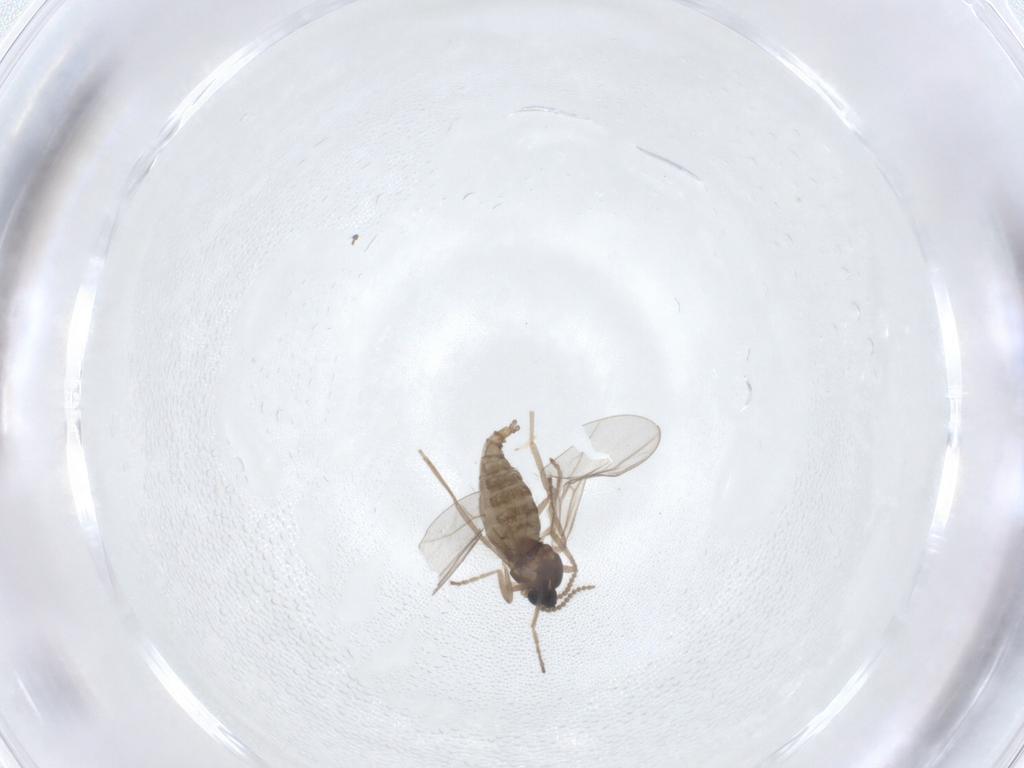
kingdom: Animalia
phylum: Arthropoda
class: Insecta
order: Diptera
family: Cecidomyiidae
